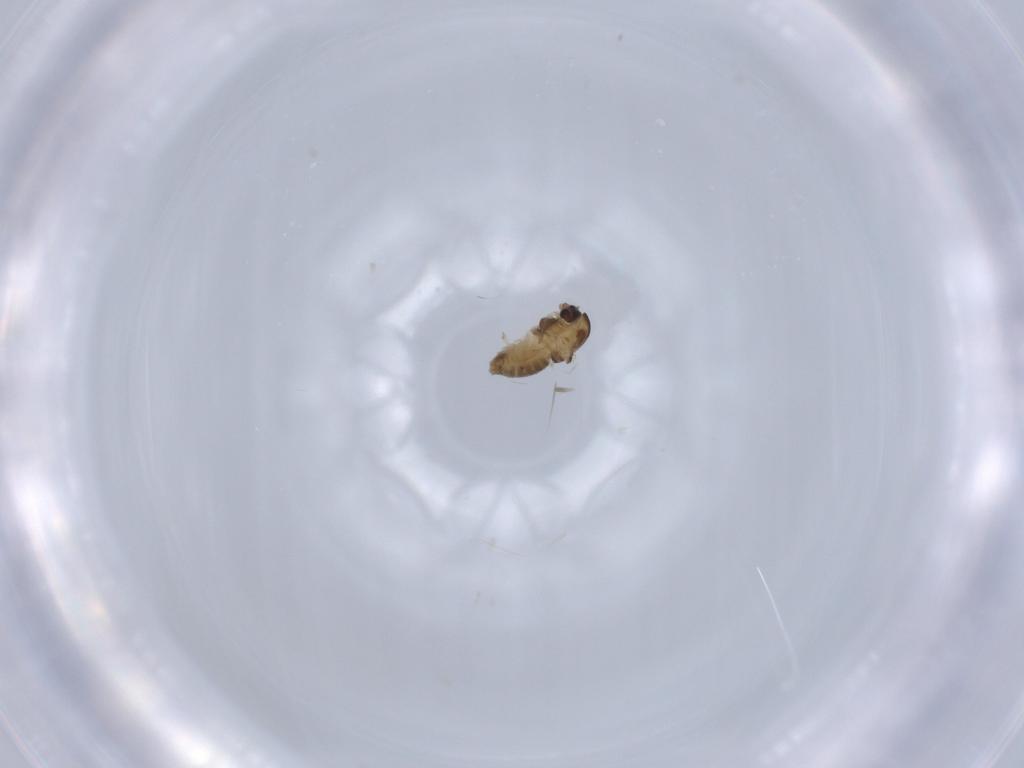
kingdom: Animalia
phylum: Arthropoda
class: Insecta
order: Diptera
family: Chironomidae
